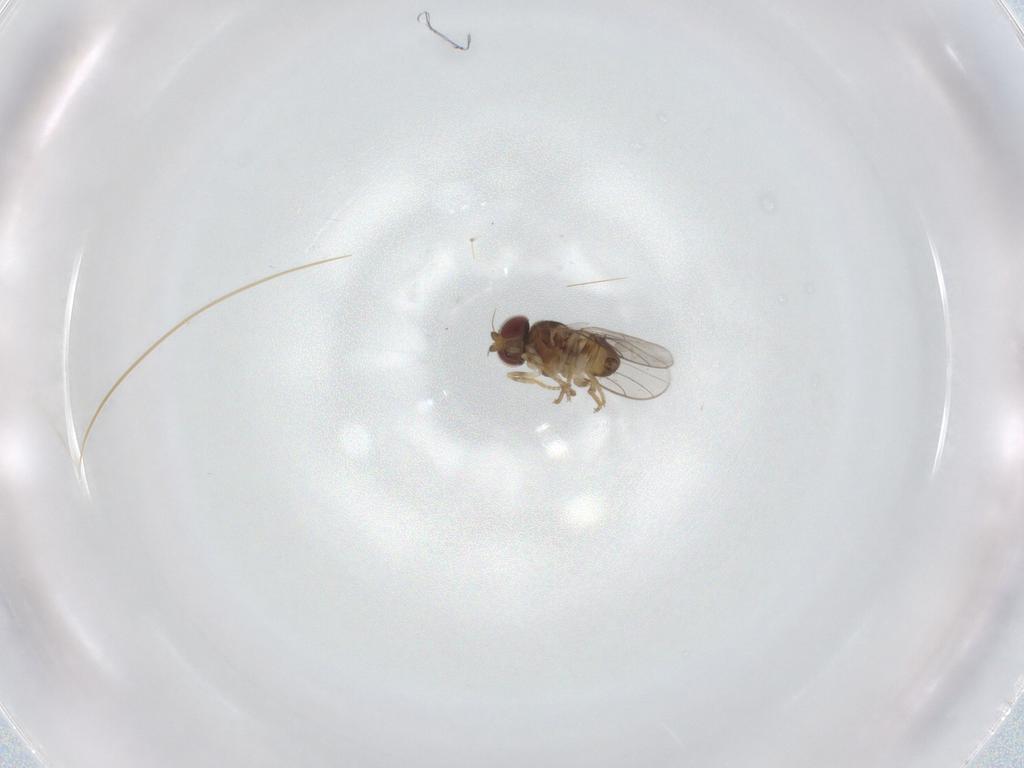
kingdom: Animalia
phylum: Arthropoda
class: Insecta
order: Diptera
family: Chloropidae
